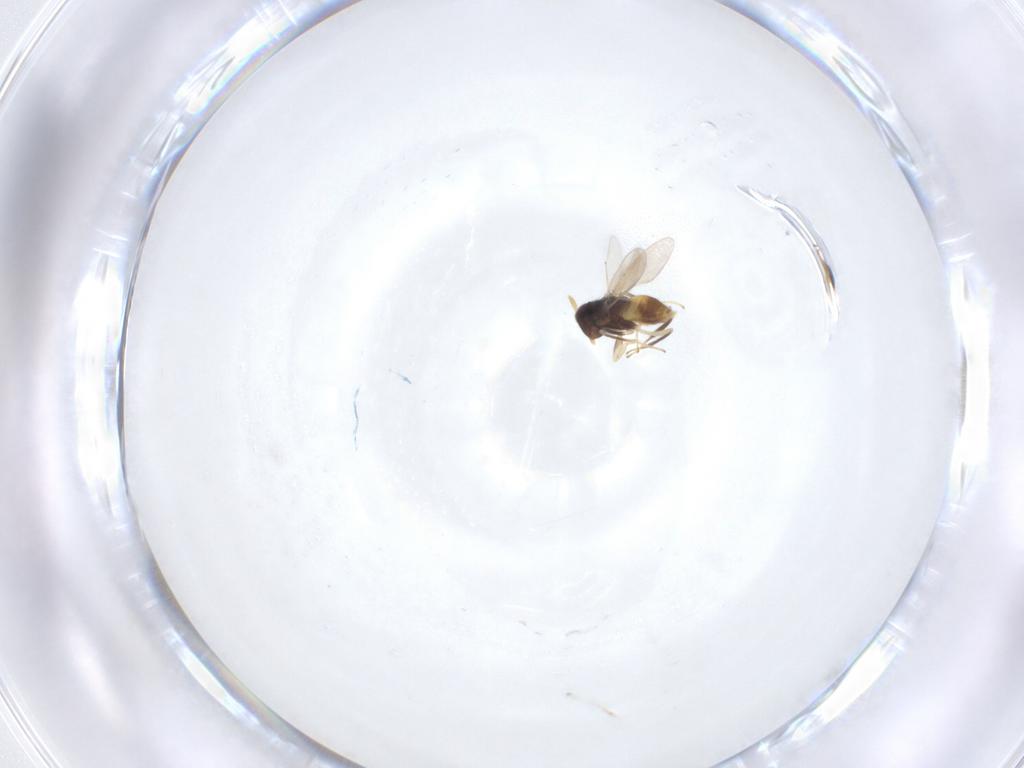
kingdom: Animalia
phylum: Arthropoda
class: Insecta
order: Hymenoptera
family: Aphelinidae
